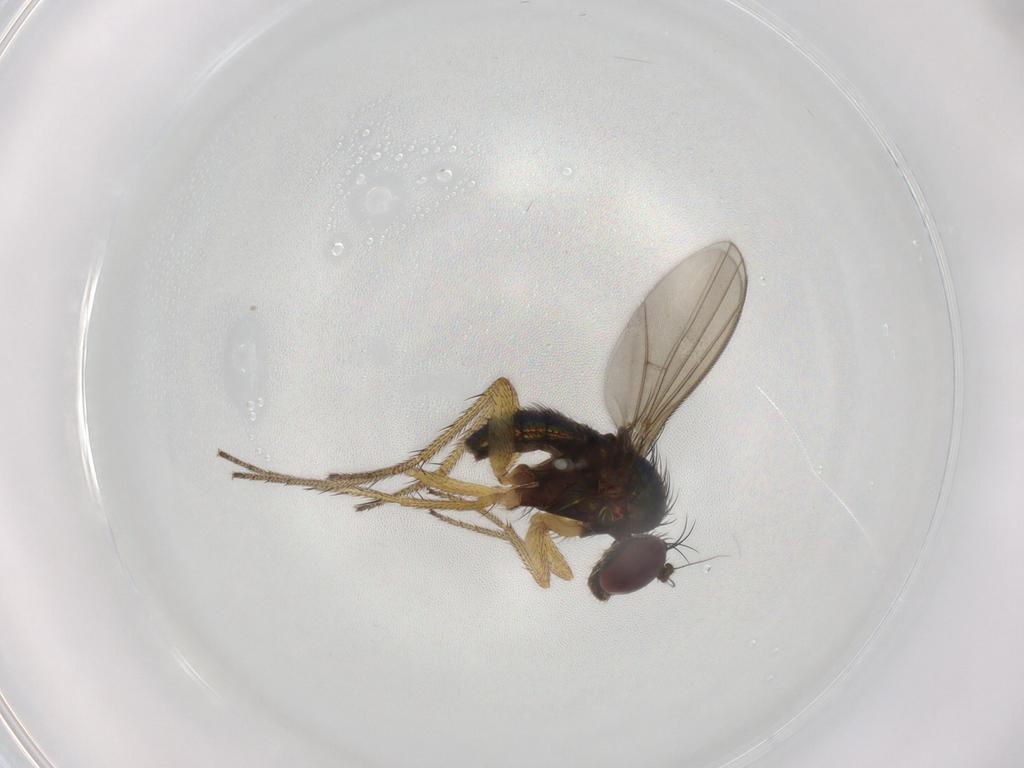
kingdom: Animalia
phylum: Arthropoda
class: Insecta
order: Diptera
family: Dolichopodidae
